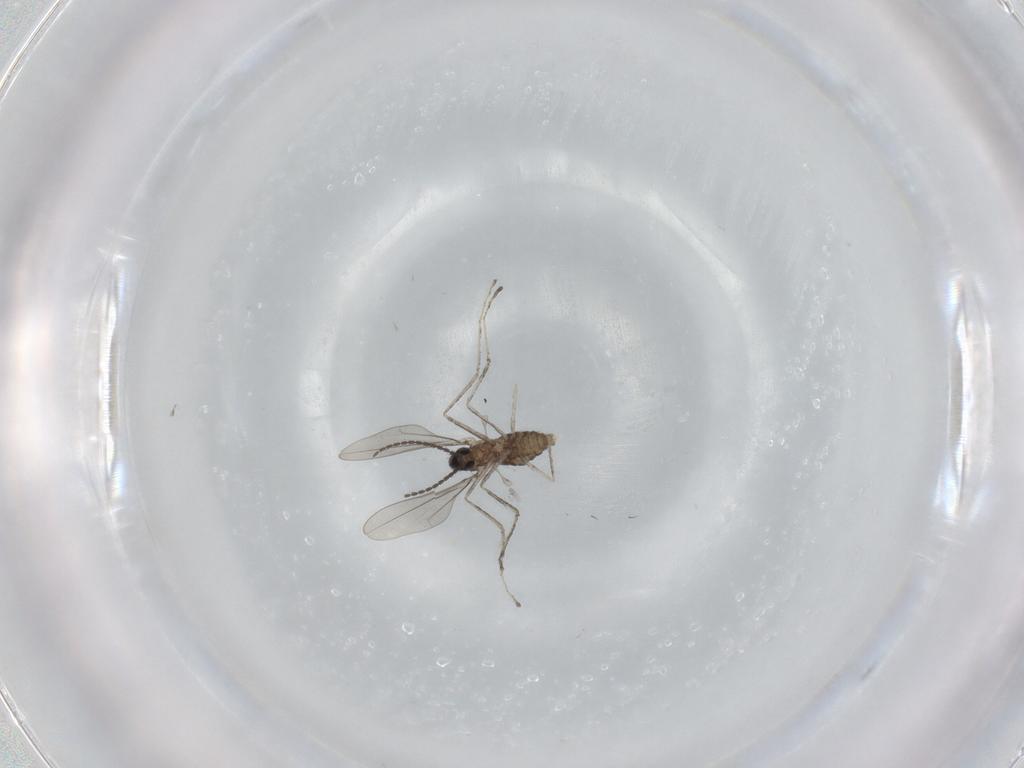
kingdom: Animalia
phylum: Arthropoda
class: Insecta
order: Diptera
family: Cecidomyiidae
